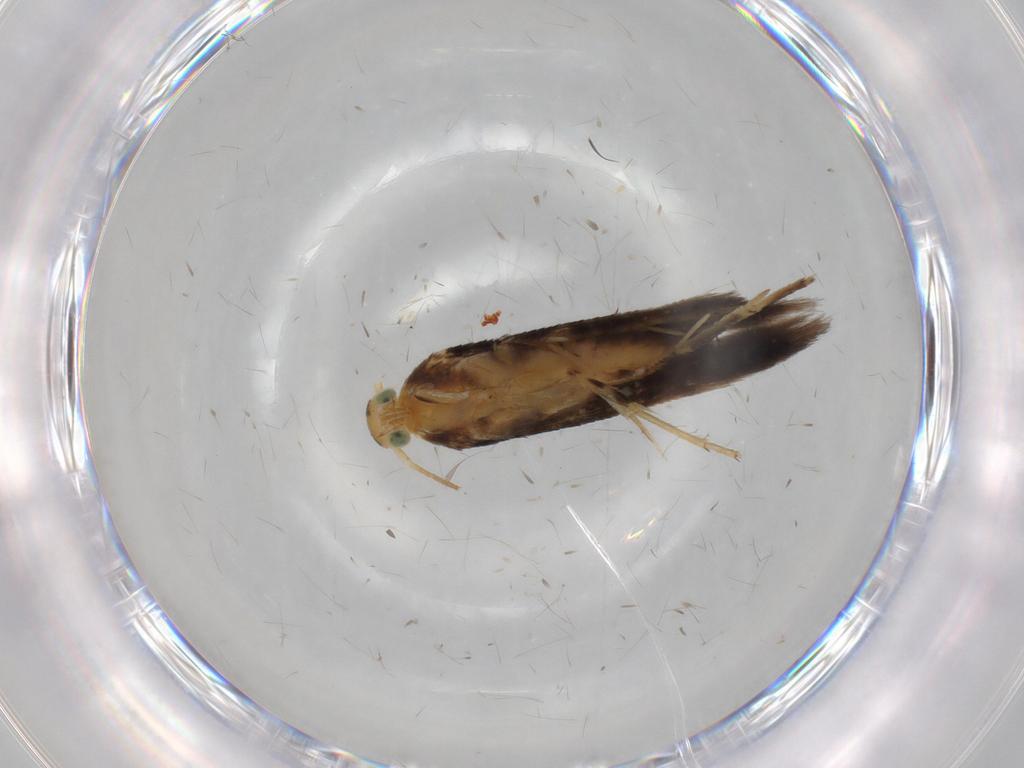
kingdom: Animalia
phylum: Arthropoda
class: Insecta
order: Lepidoptera
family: Heliodinidae
